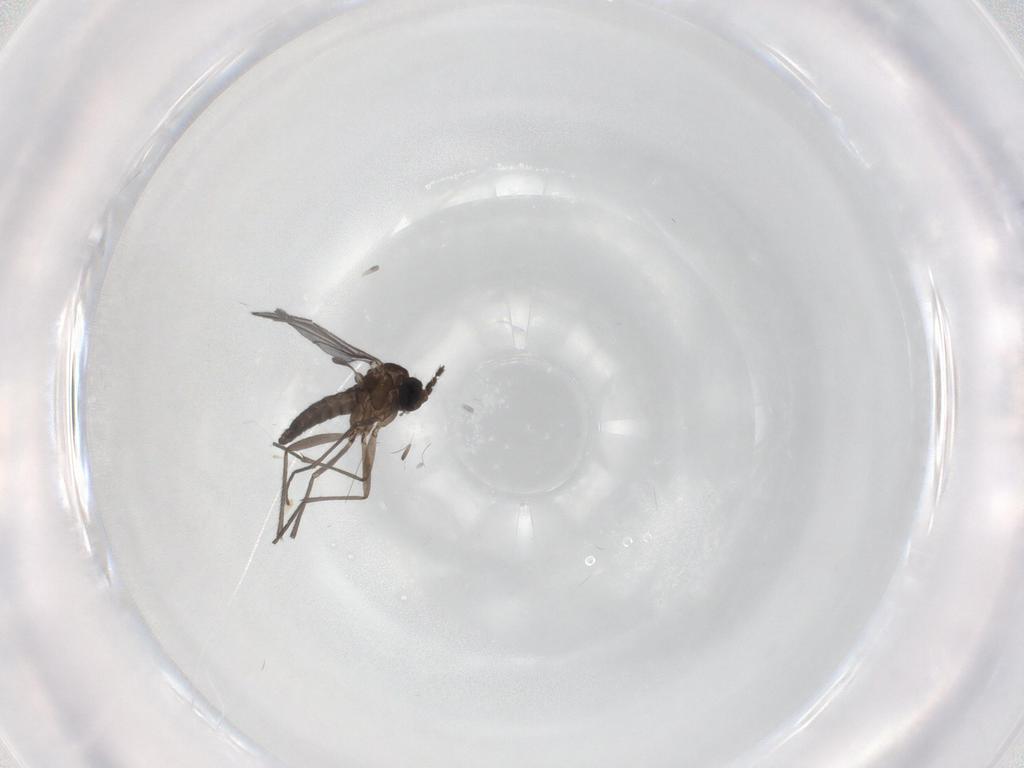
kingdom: Animalia
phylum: Arthropoda
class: Insecta
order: Diptera
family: Sciaridae
